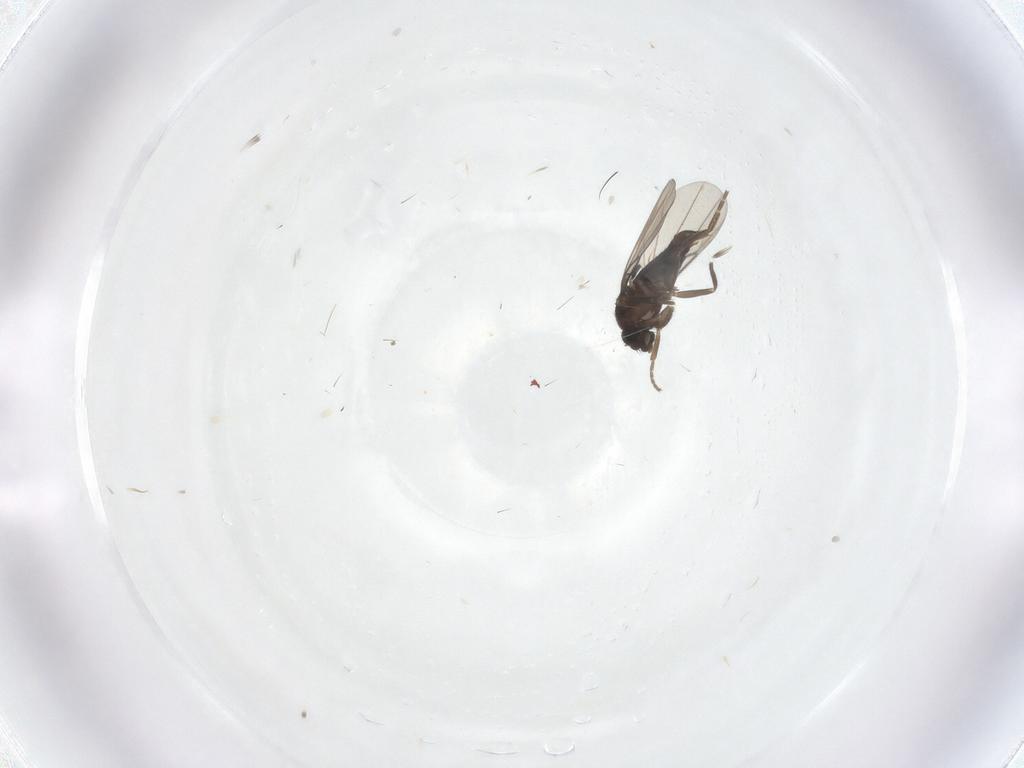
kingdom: Animalia
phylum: Arthropoda
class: Insecta
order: Diptera
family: Phoridae
